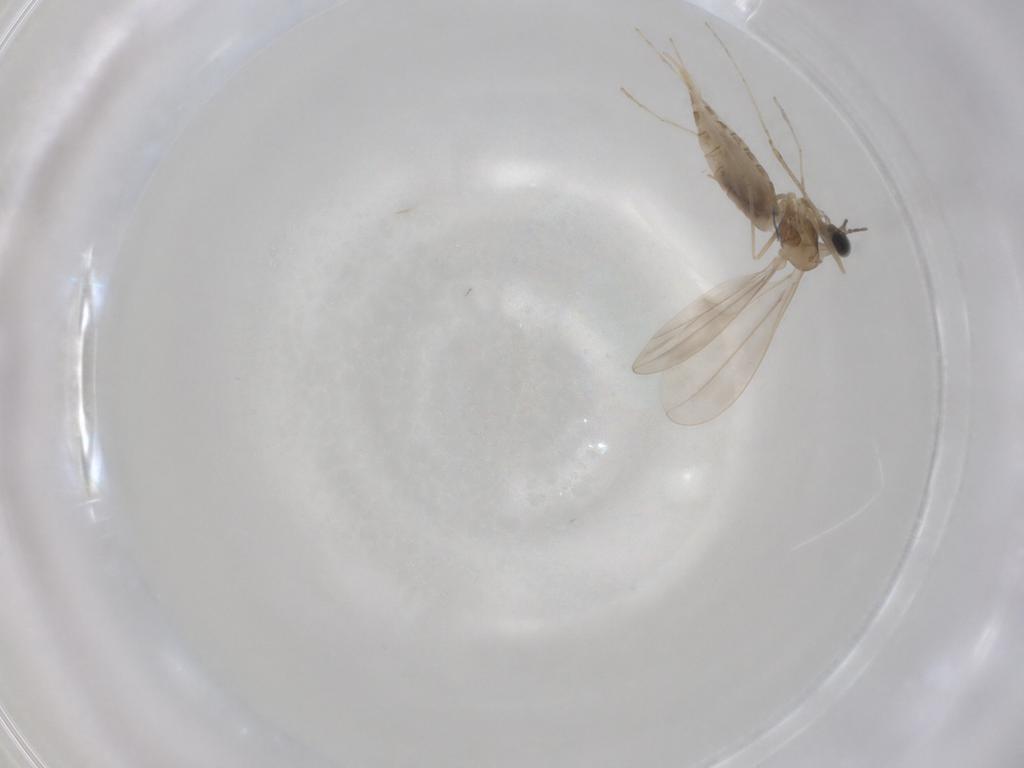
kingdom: Animalia
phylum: Arthropoda
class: Insecta
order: Diptera
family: Cecidomyiidae
